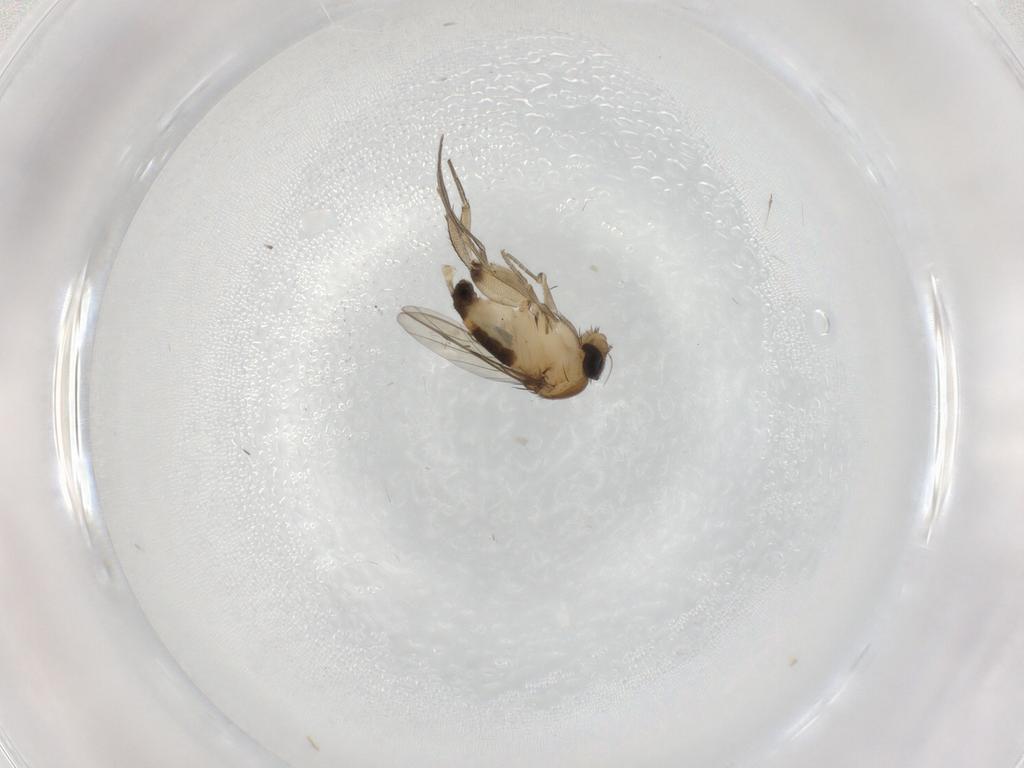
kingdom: Animalia
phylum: Arthropoda
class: Insecta
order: Diptera
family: Phoridae
